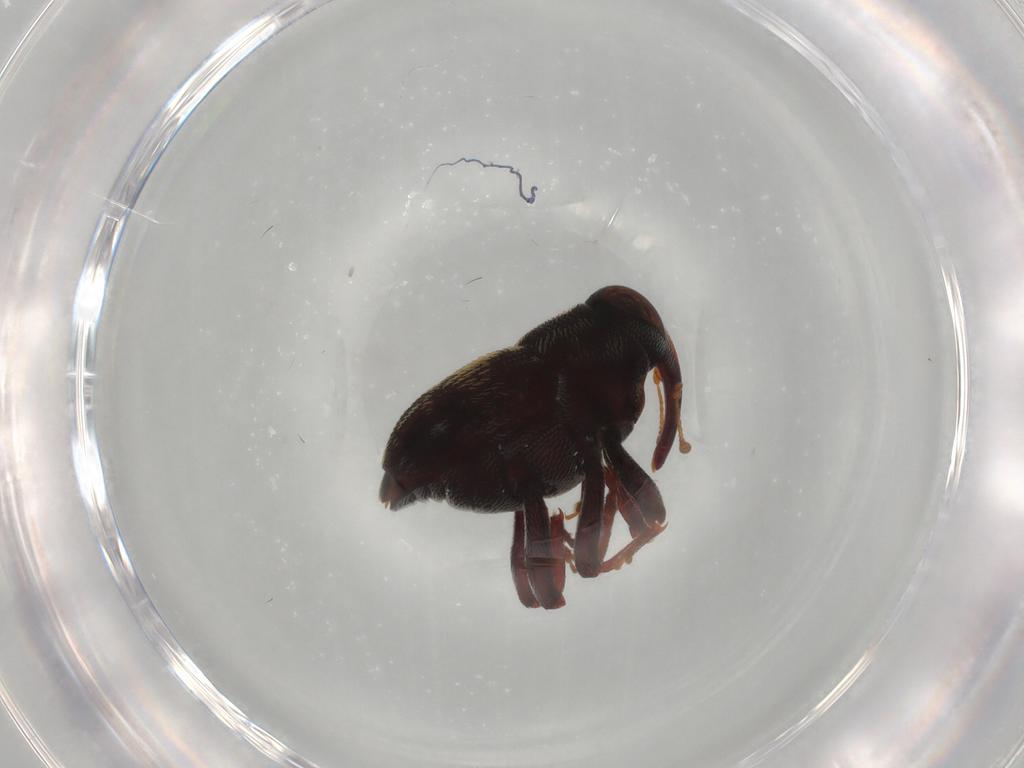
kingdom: Animalia
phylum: Arthropoda
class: Insecta
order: Coleoptera
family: Curculionidae
